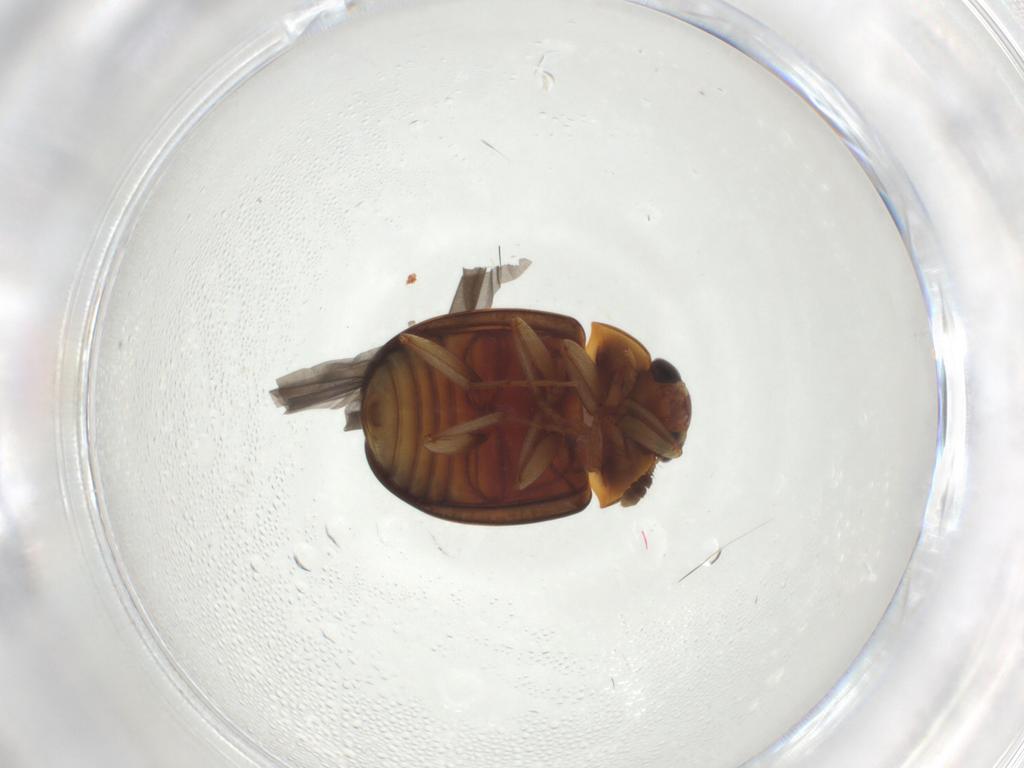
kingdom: Animalia
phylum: Arthropoda
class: Insecta
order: Coleoptera
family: Nitidulidae
